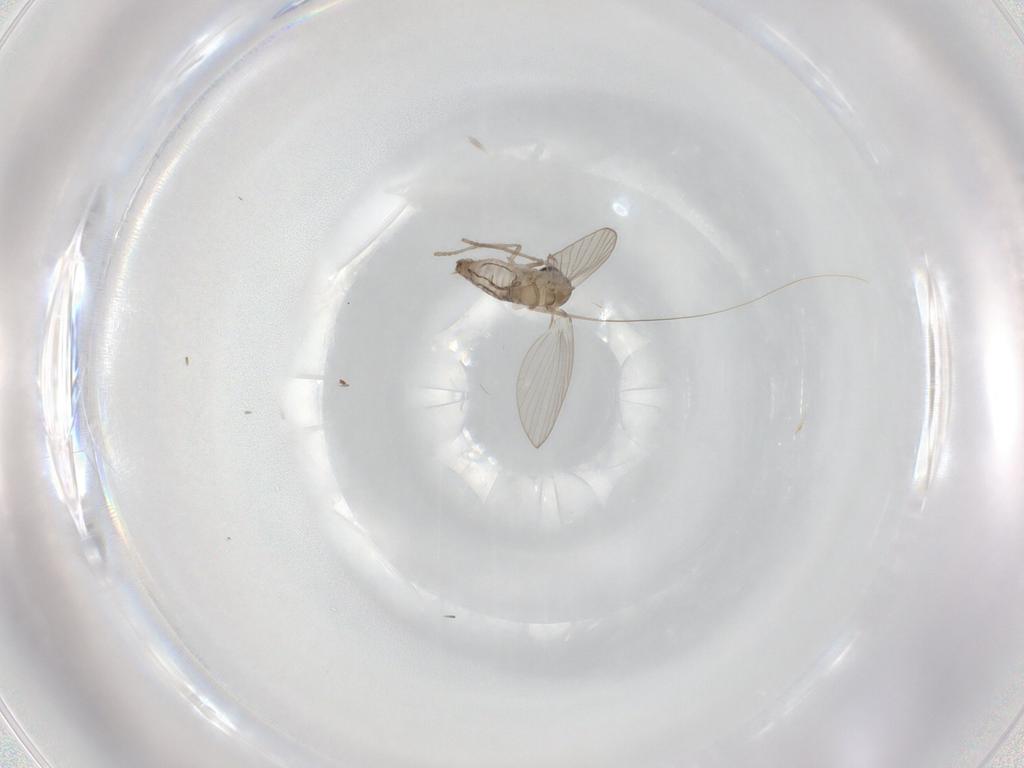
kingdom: Animalia
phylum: Arthropoda
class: Insecta
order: Diptera
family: Psychodidae
